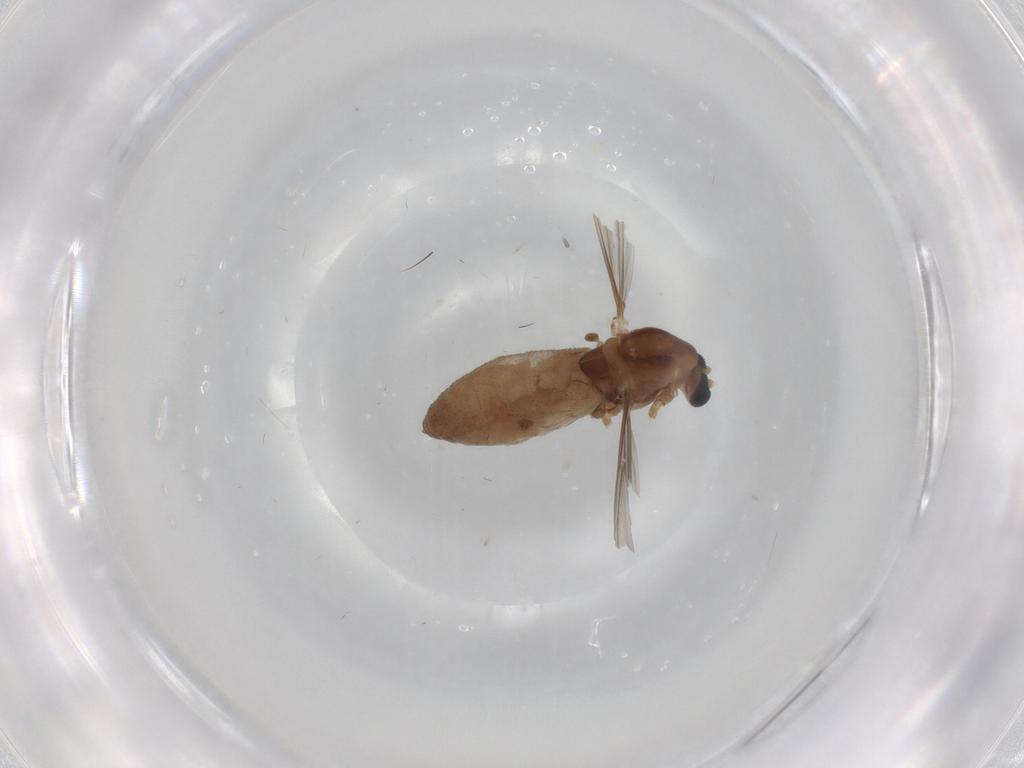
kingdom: Animalia
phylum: Arthropoda
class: Insecta
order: Diptera
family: Chironomidae
